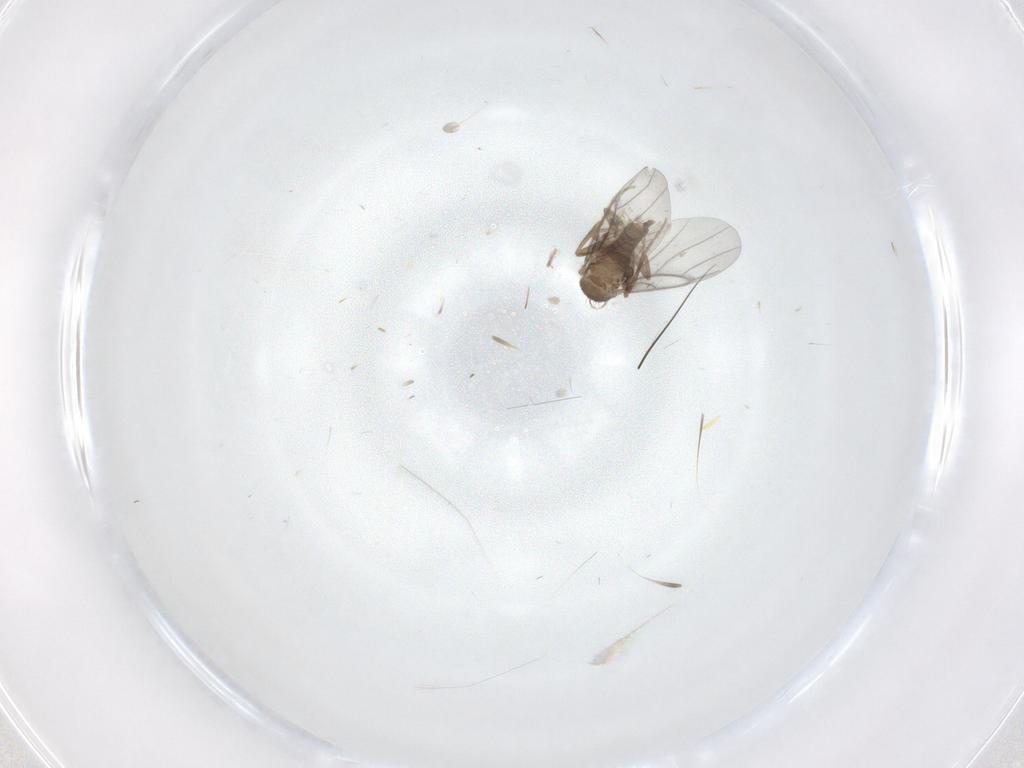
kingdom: Animalia
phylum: Arthropoda
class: Insecta
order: Diptera
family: Cecidomyiidae
